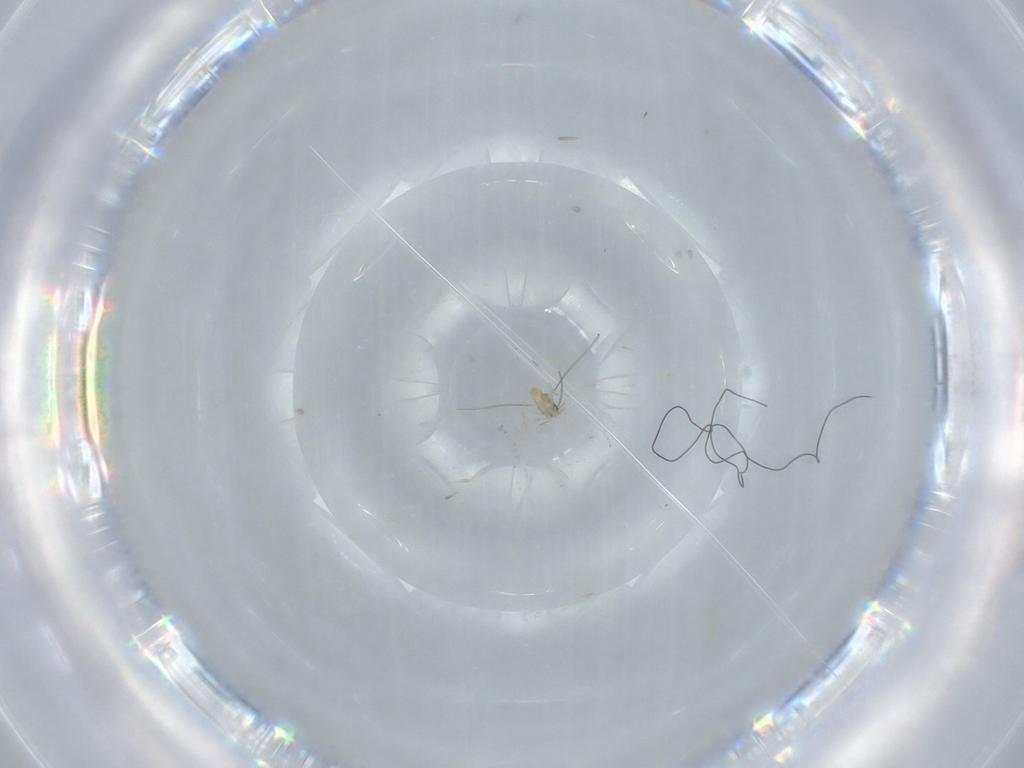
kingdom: Animalia
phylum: Arthropoda
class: Insecta
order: Diptera
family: Cecidomyiidae
